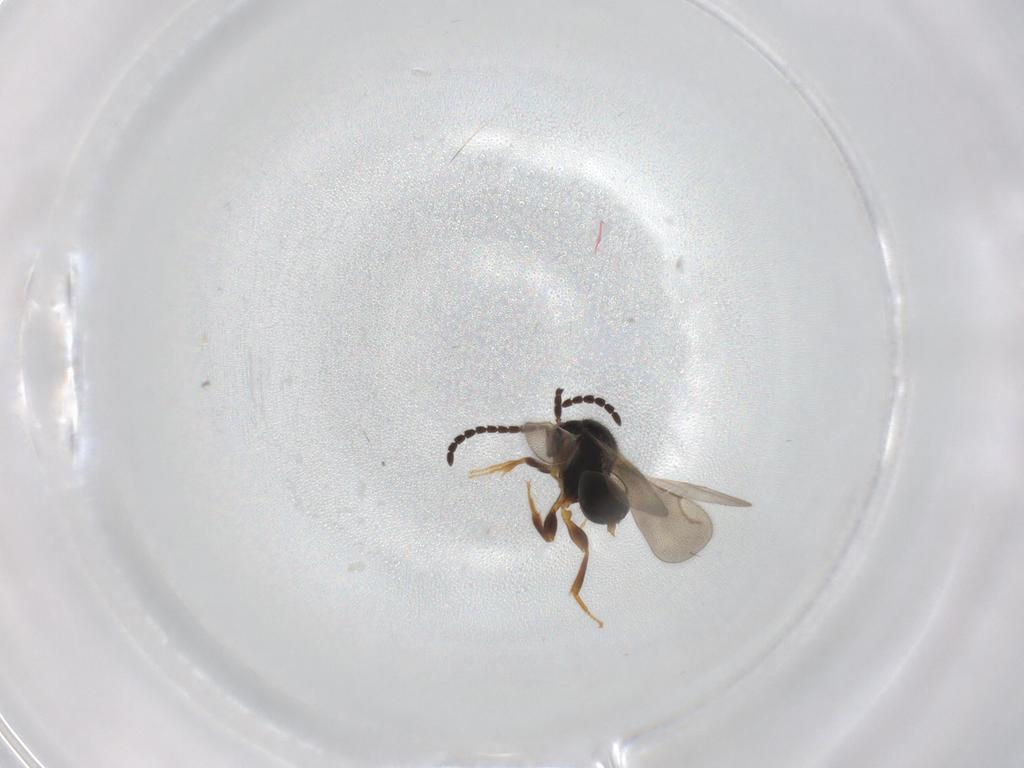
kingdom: Animalia
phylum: Arthropoda
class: Insecta
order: Hymenoptera
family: Ceraphronidae
